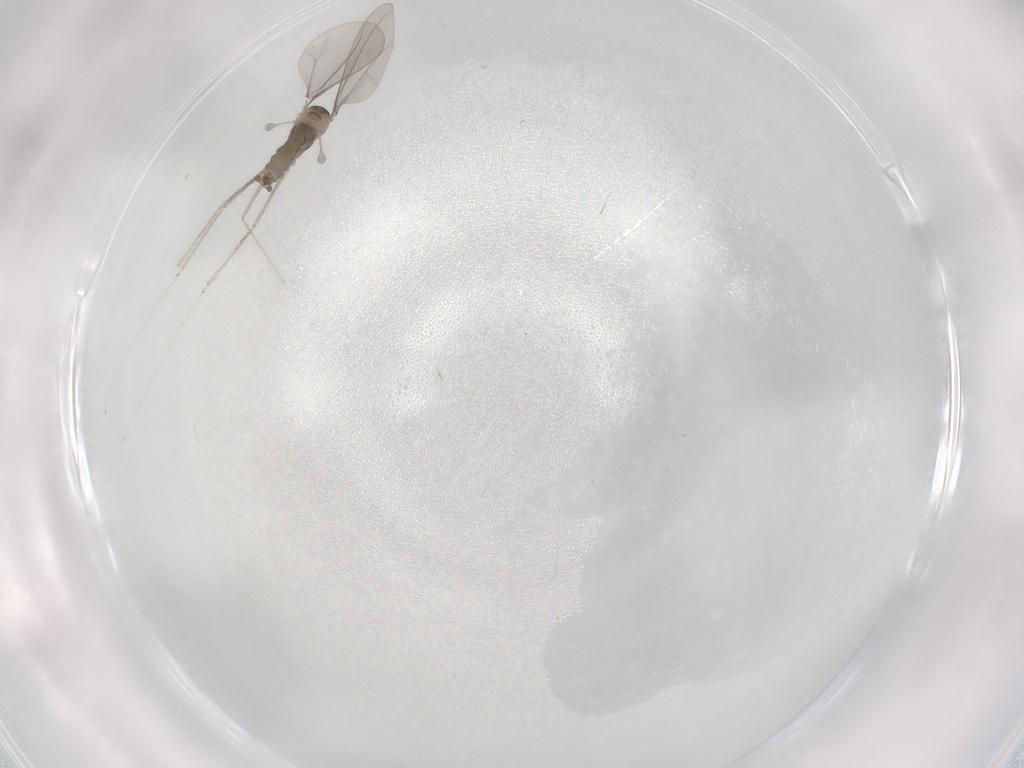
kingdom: Animalia
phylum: Arthropoda
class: Insecta
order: Diptera
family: Cecidomyiidae
